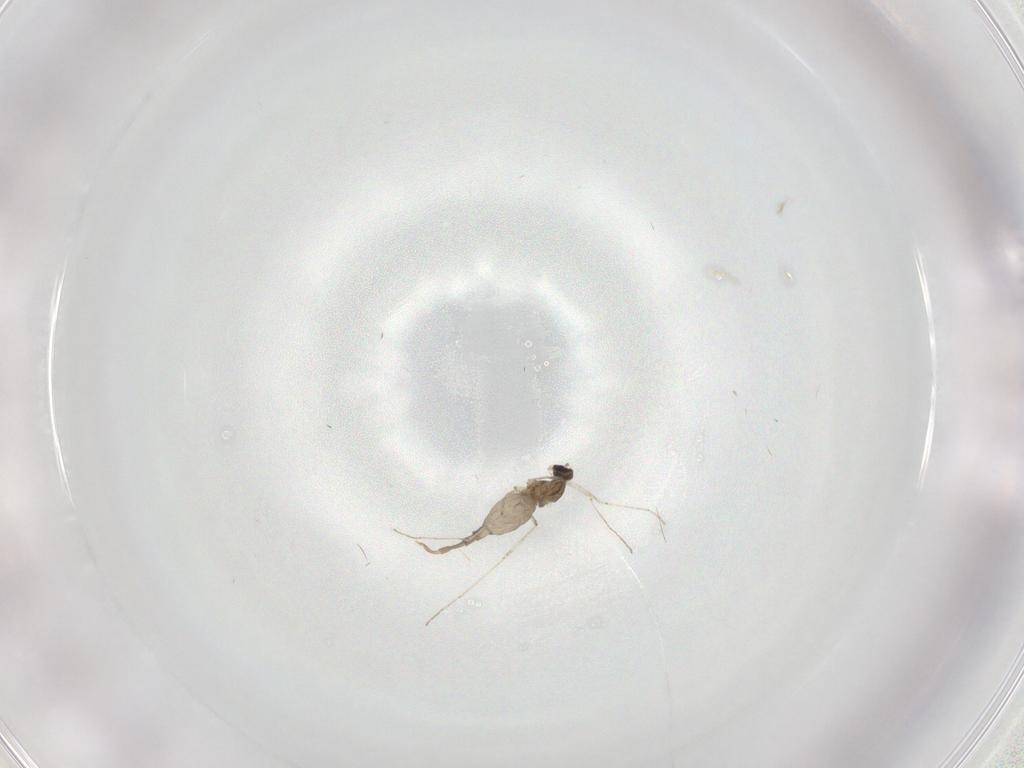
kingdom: Animalia
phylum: Arthropoda
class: Insecta
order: Diptera
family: Cecidomyiidae
